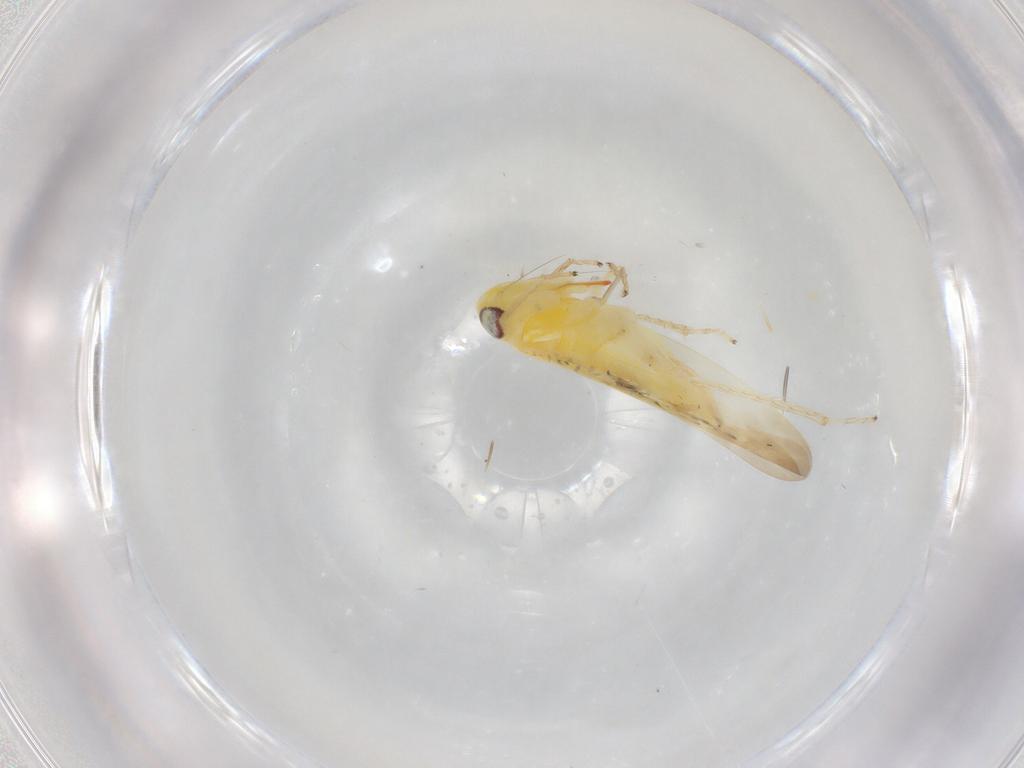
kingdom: Animalia
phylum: Arthropoda
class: Insecta
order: Hemiptera
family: Cicadellidae
